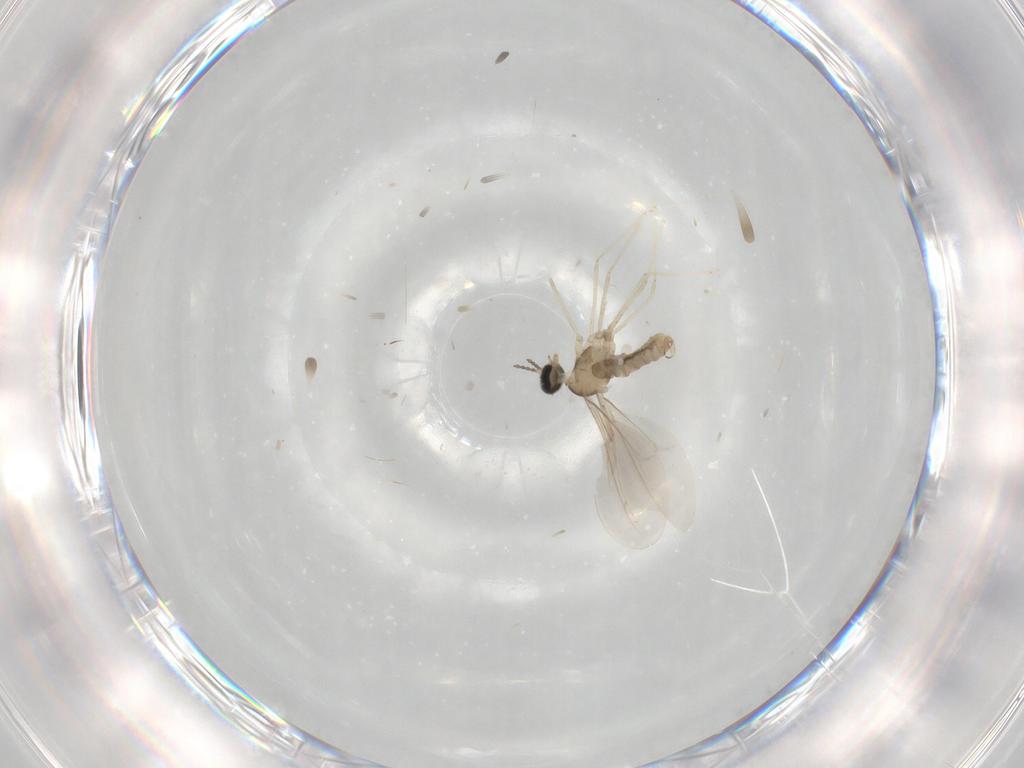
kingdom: Animalia
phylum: Arthropoda
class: Insecta
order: Diptera
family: Cecidomyiidae
